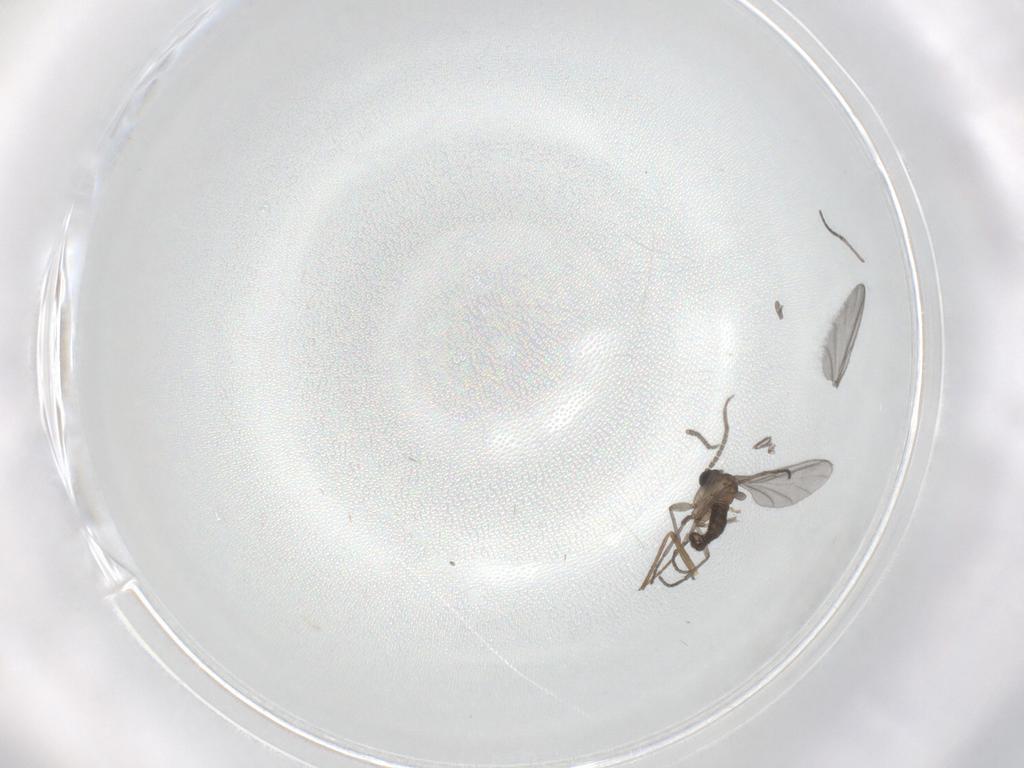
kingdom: Animalia
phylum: Arthropoda
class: Insecta
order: Diptera
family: Sciaridae
